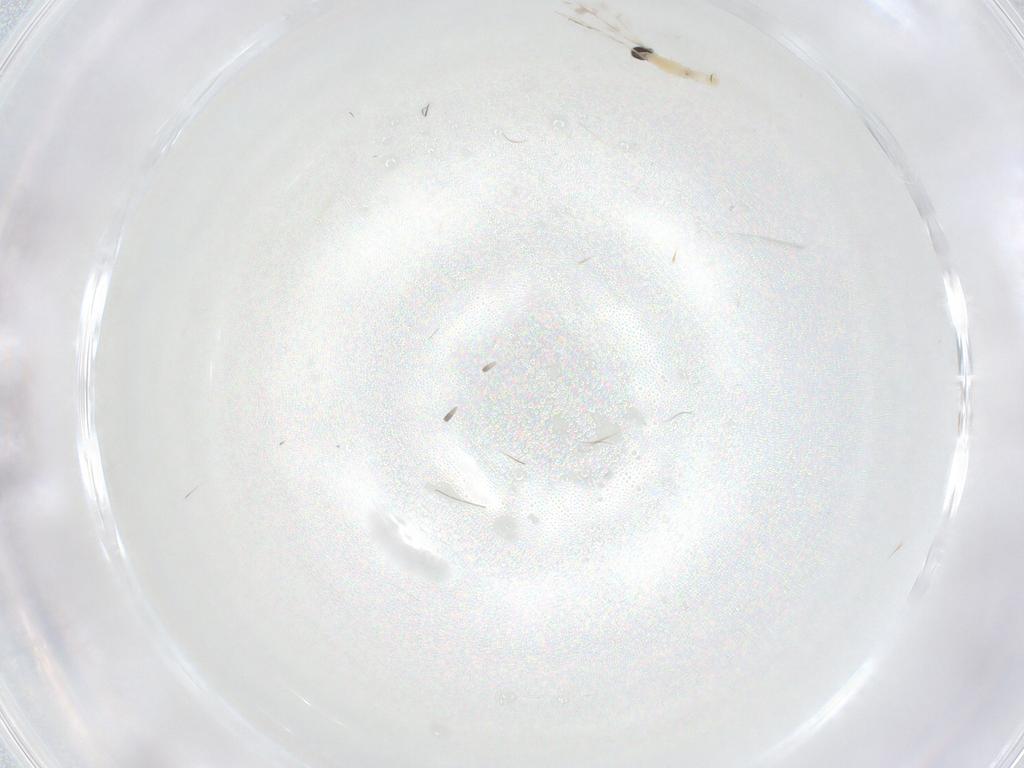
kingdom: Animalia
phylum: Arthropoda
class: Insecta
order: Diptera
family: Cecidomyiidae
